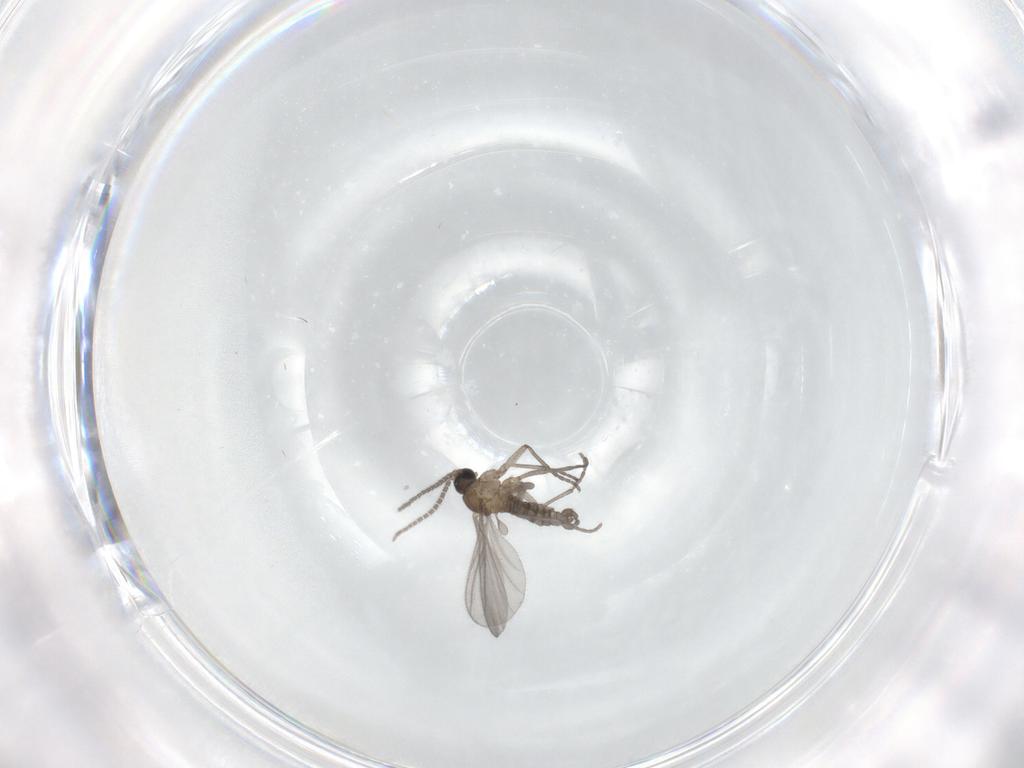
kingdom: Animalia
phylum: Arthropoda
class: Insecta
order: Diptera
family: Sciaridae
